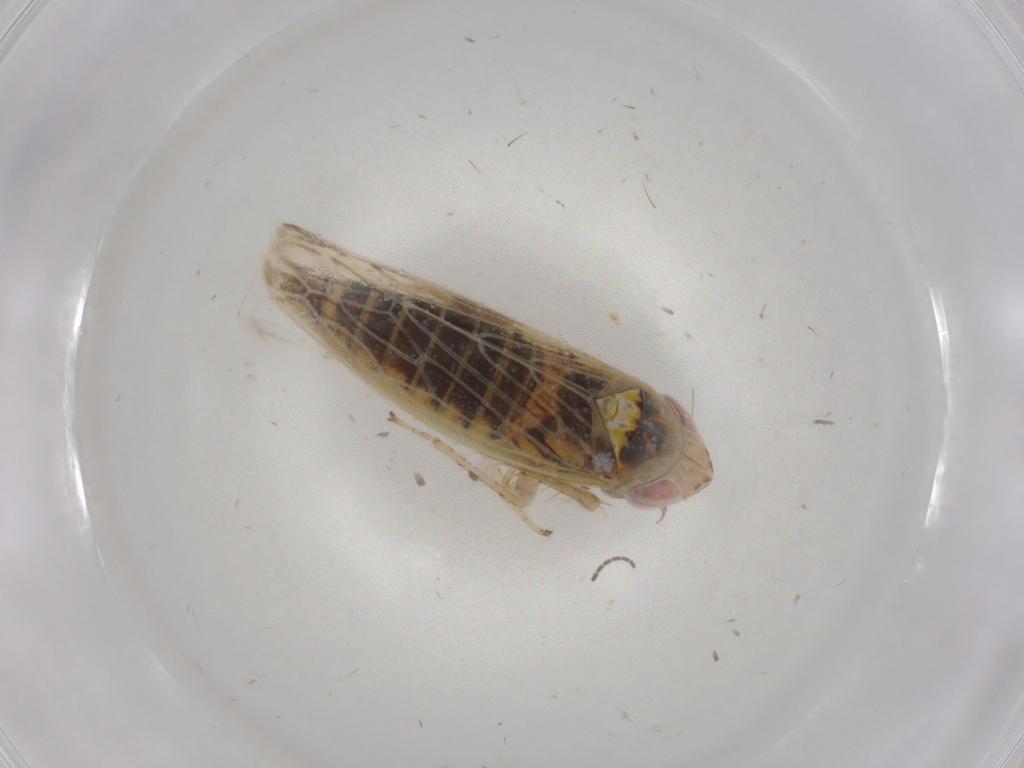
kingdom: Animalia
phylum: Arthropoda
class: Insecta
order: Hemiptera
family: Cicadellidae
